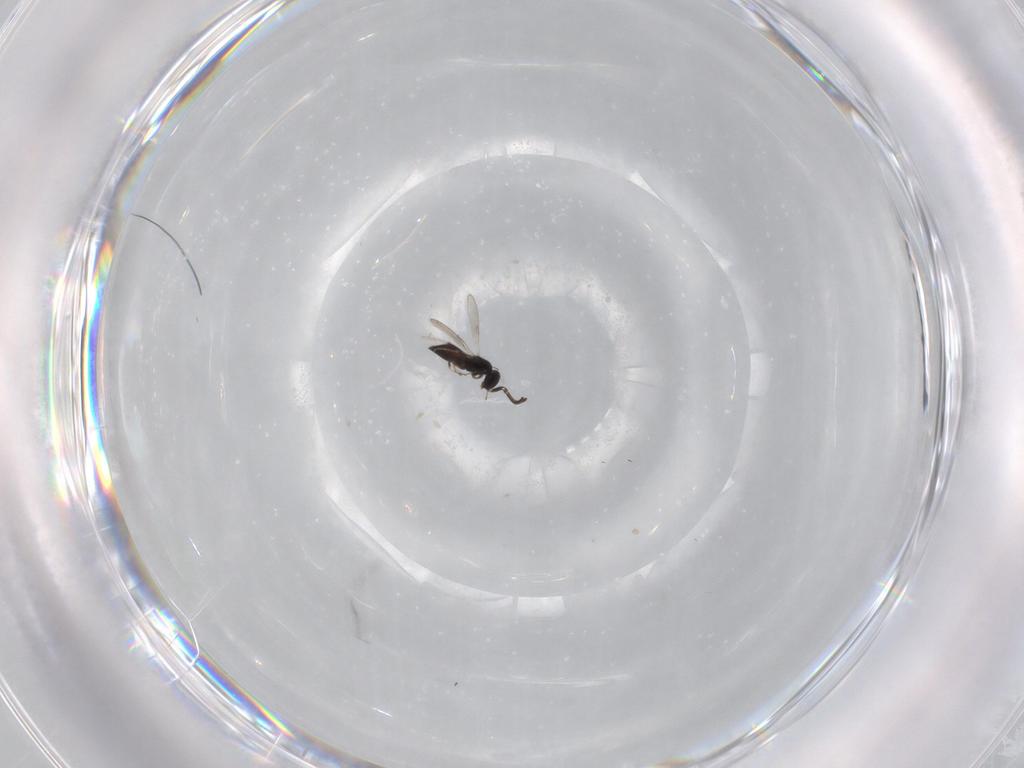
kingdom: Animalia
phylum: Arthropoda
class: Insecta
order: Hymenoptera
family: Scelionidae
